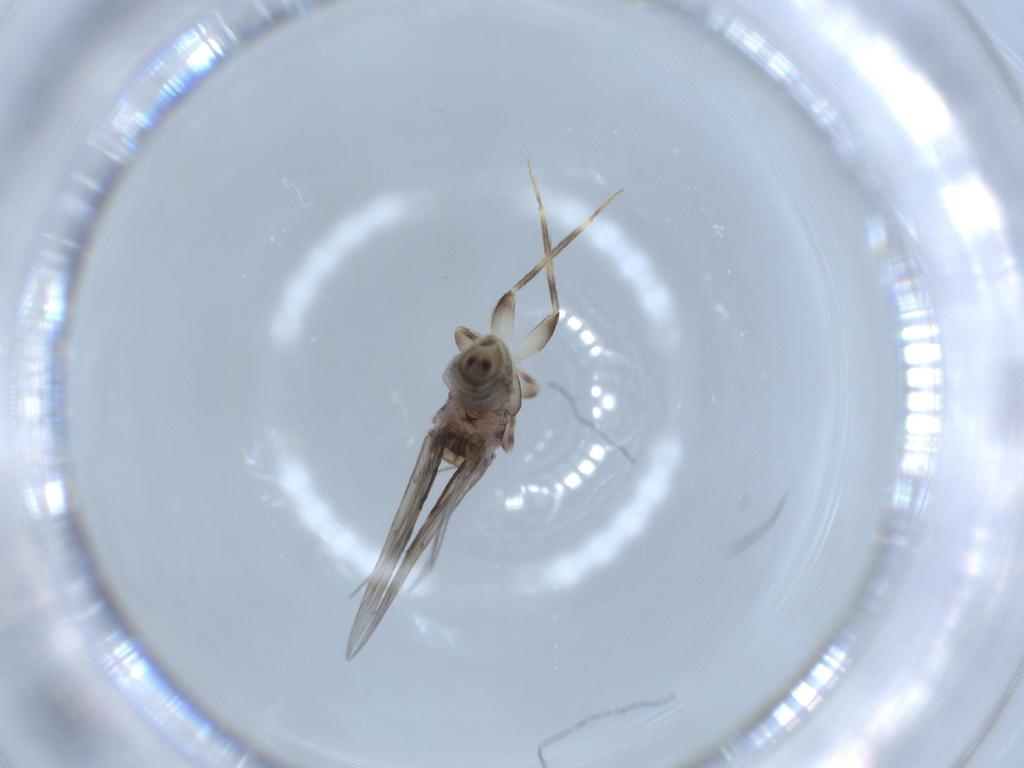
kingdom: Animalia
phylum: Arthropoda
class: Insecta
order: Psocodea
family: Lepidopsocidae
